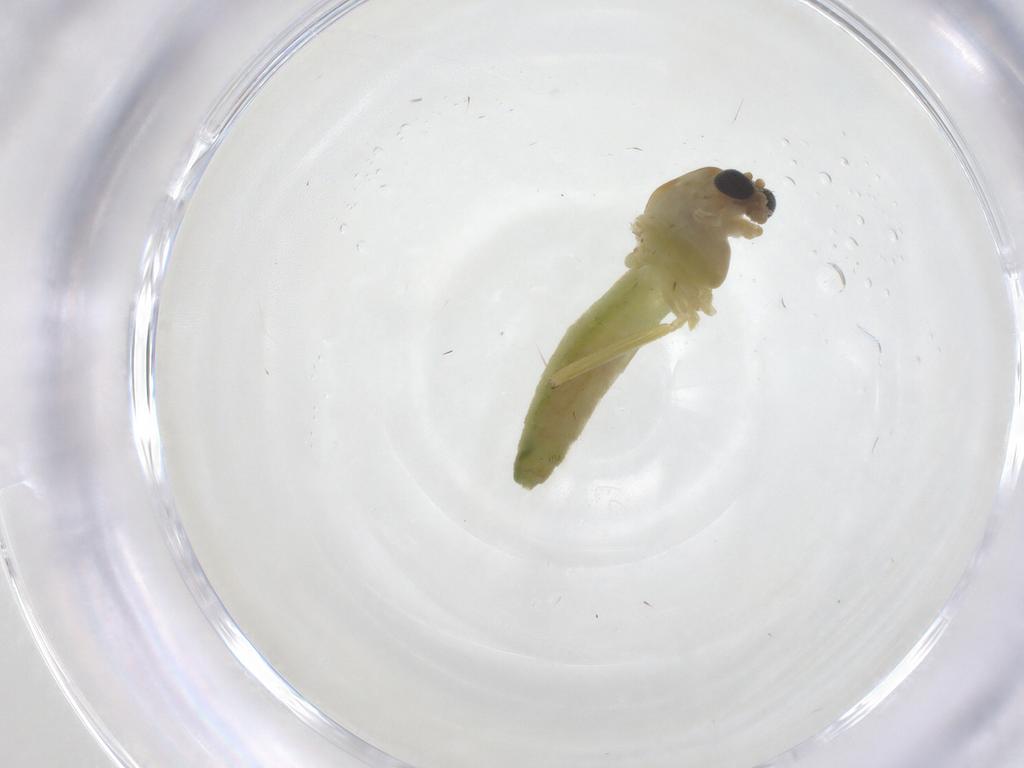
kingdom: Animalia
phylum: Arthropoda
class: Insecta
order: Diptera
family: Chironomidae
